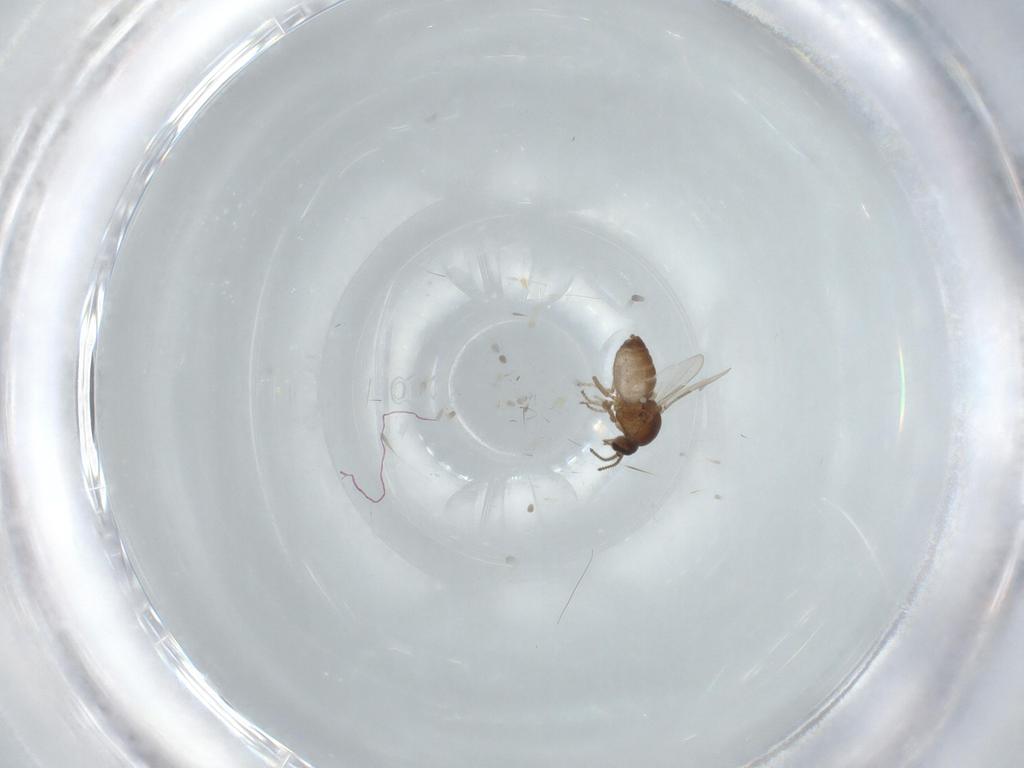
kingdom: Animalia
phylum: Arthropoda
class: Insecta
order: Diptera
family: Ceratopogonidae
